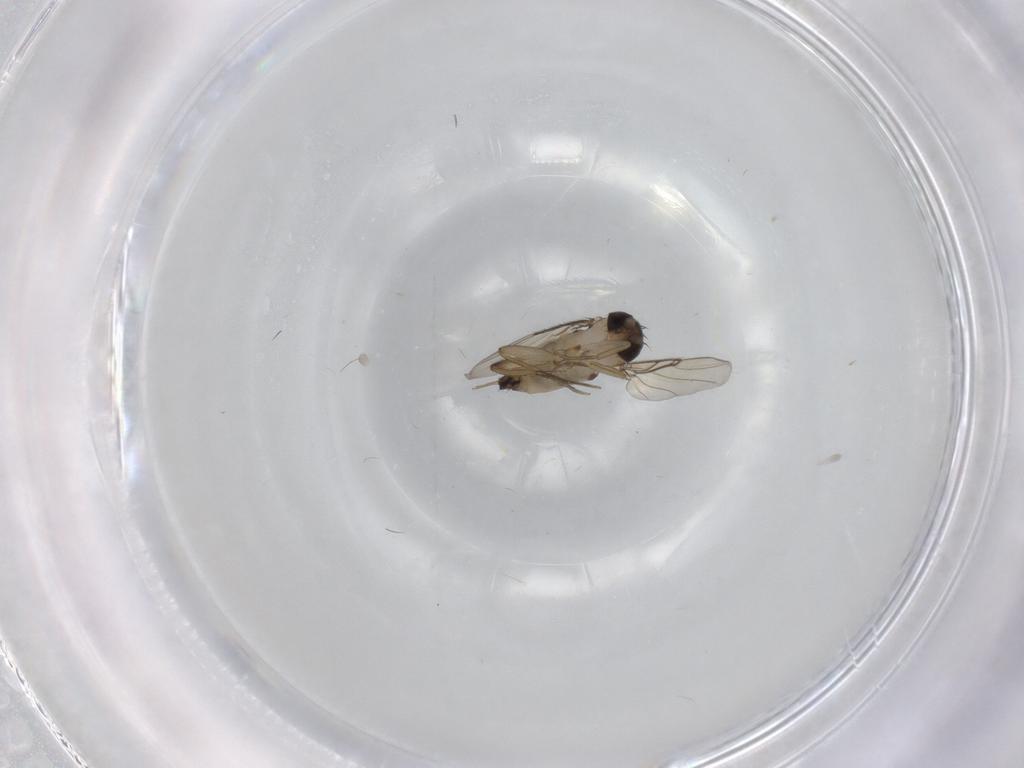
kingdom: Animalia
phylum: Arthropoda
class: Insecta
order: Diptera
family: Phoridae
